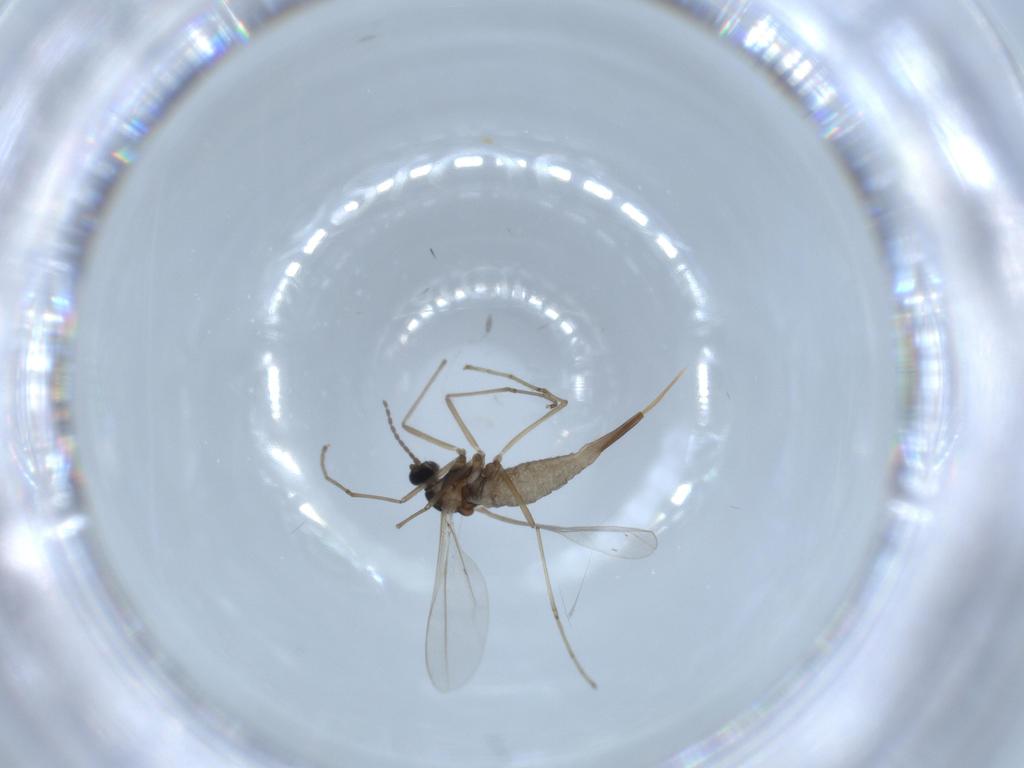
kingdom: Animalia
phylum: Arthropoda
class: Insecta
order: Diptera
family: Cecidomyiidae
